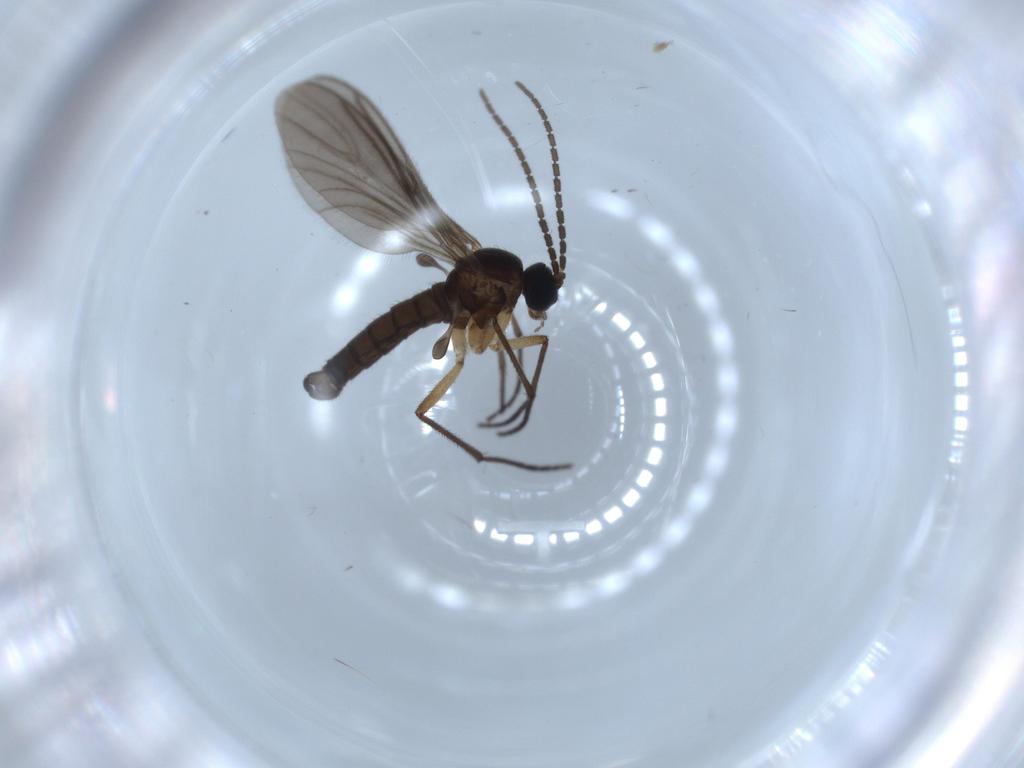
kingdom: Animalia
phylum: Arthropoda
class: Insecta
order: Diptera
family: Sciaridae
